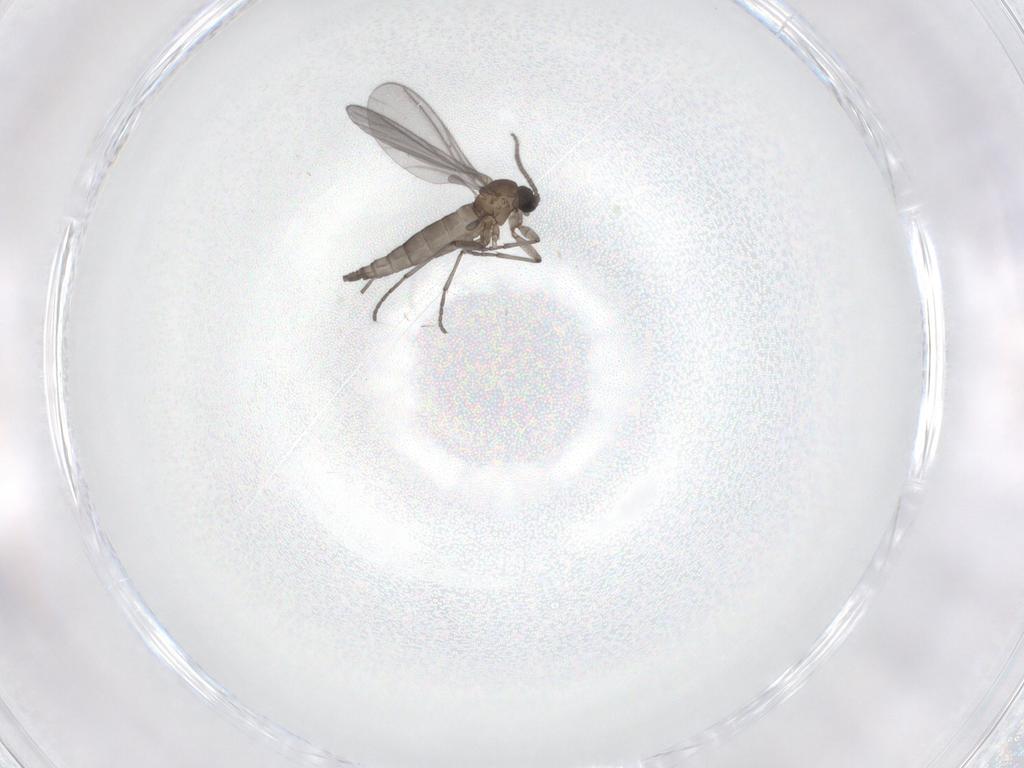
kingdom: Animalia
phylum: Arthropoda
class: Insecta
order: Diptera
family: Sciaridae
